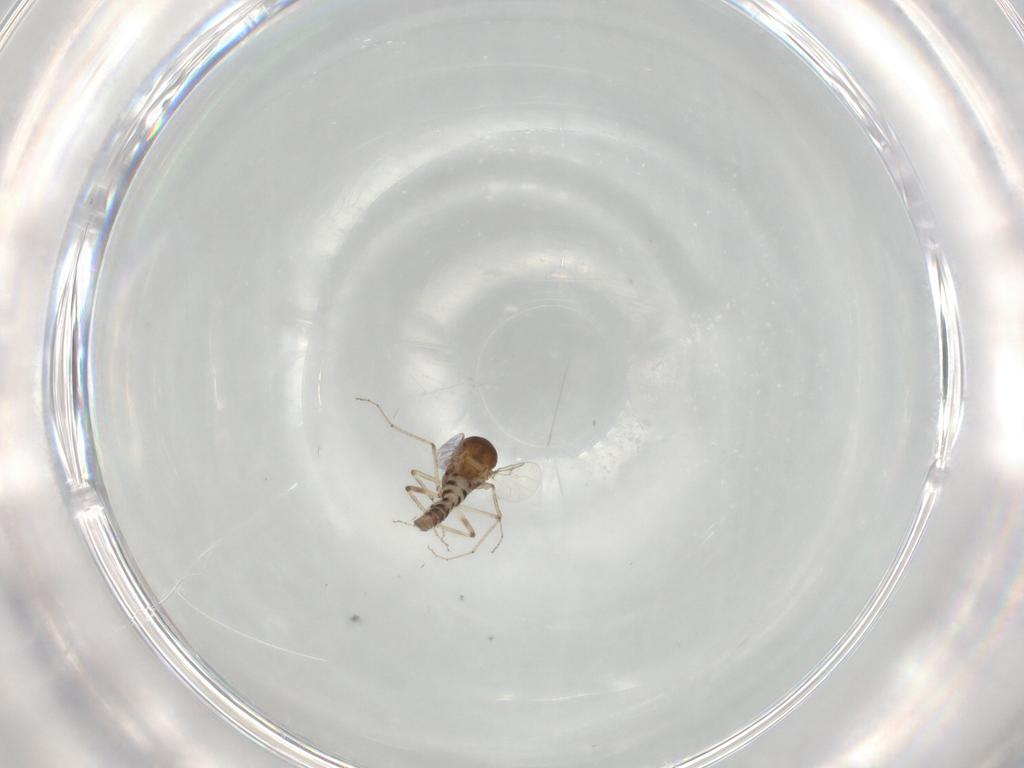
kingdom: Animalia
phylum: Arthropoda
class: Insecta
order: Diptera
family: Ceratopogonidae
